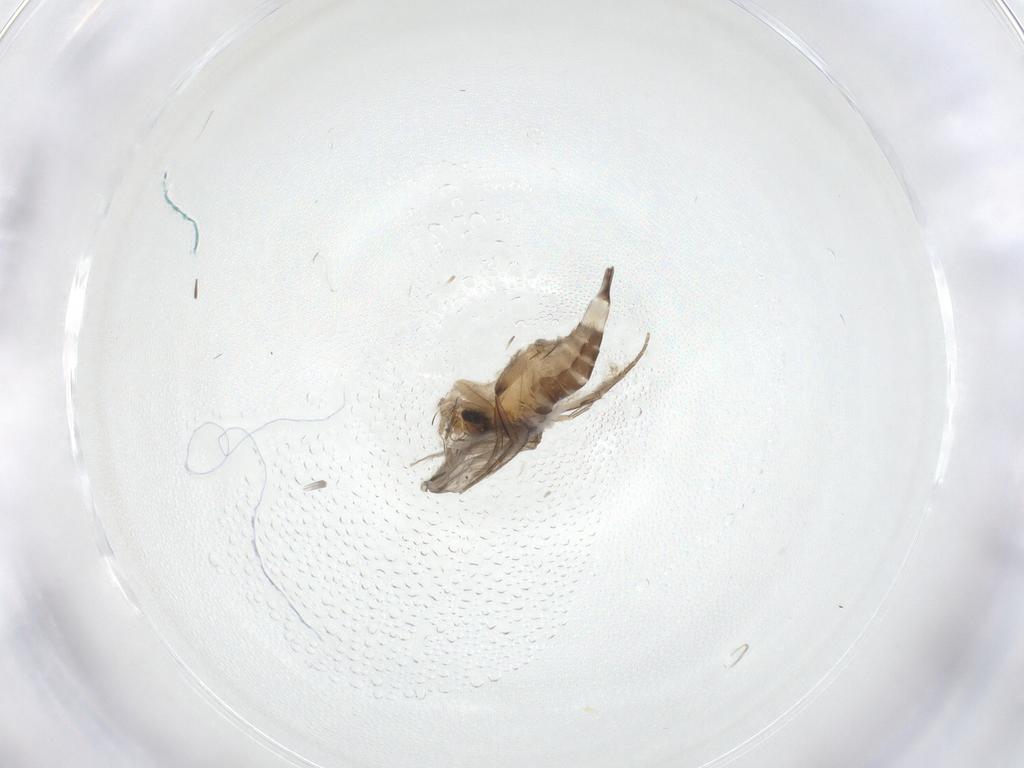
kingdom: Animalia
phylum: Arthropoda
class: Insecta
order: Diptera
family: Phoridae
